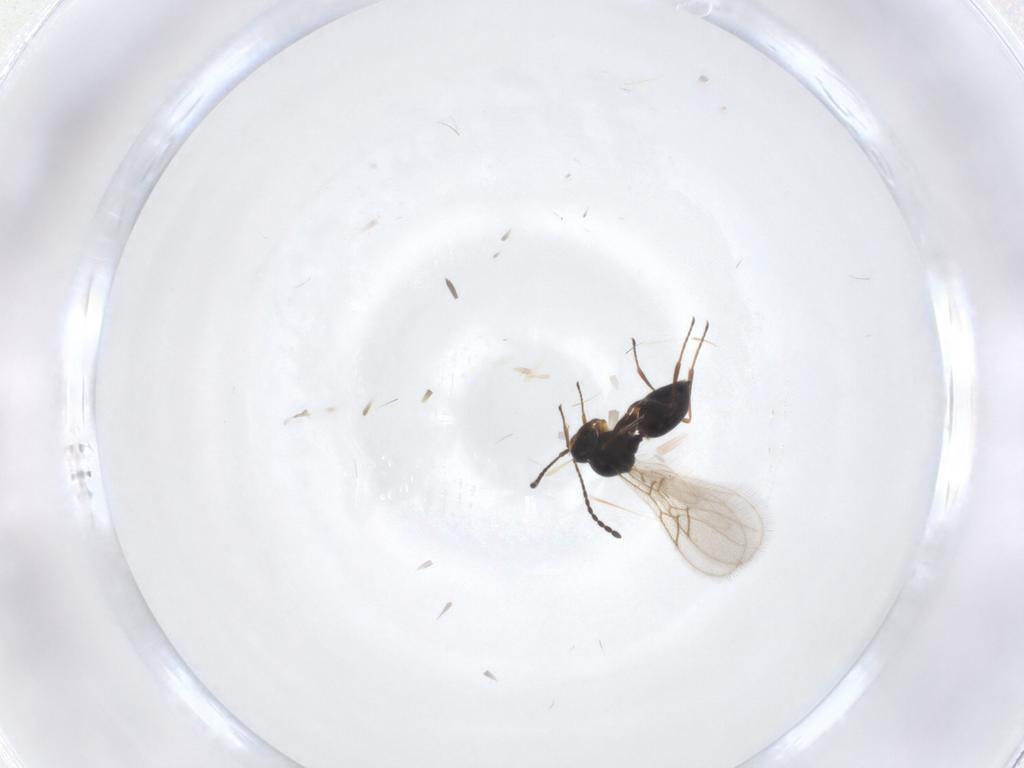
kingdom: Animalia
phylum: Arthropoda
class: Insecta
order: Hymenoptera
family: Figitidae
